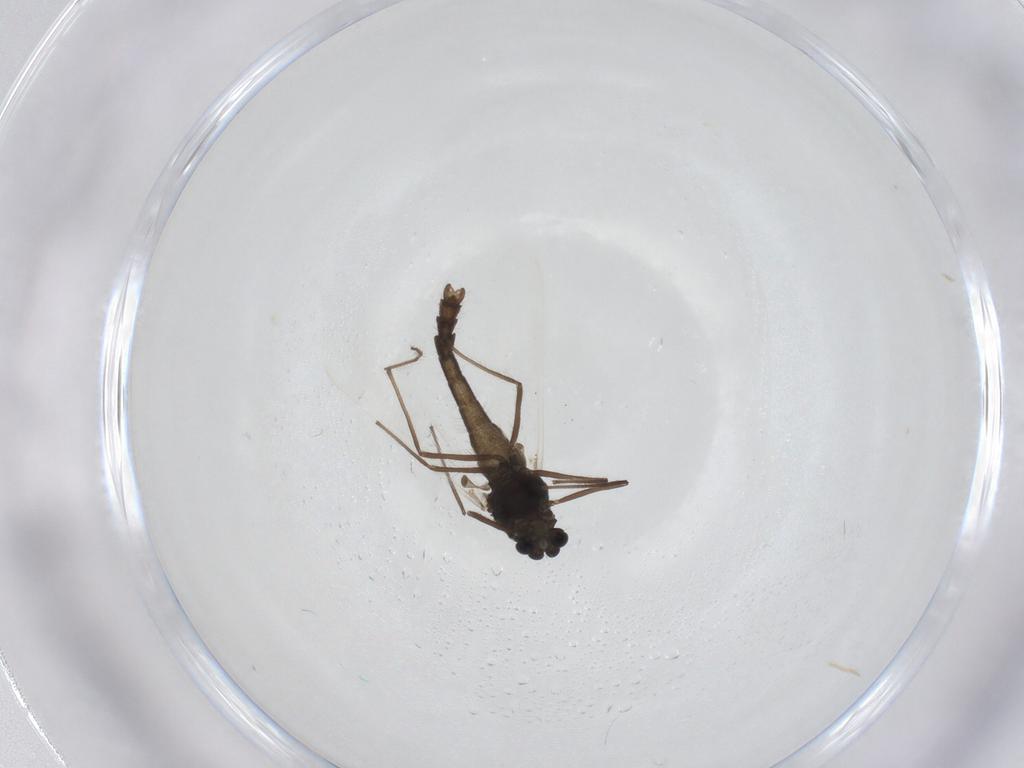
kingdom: Animalia
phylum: Arthropoda
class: Insecta
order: Diptera
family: Chironomidae
